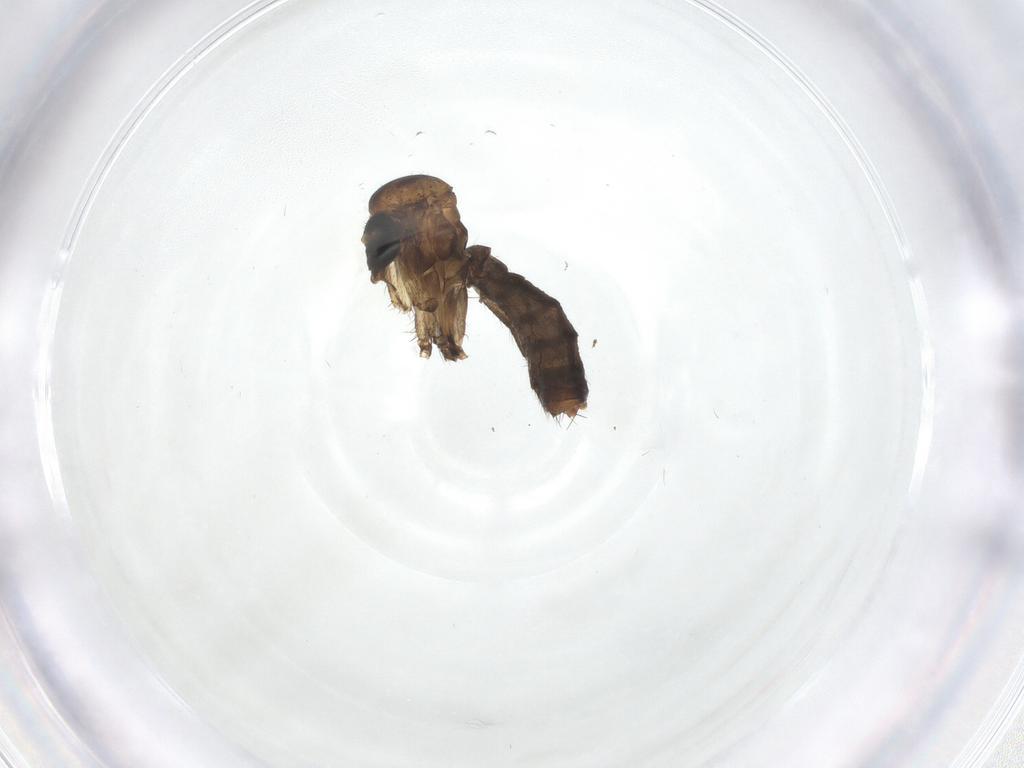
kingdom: Animalia
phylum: Arthropoda
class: Insecta
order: Diptera
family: Mycetophilidae
